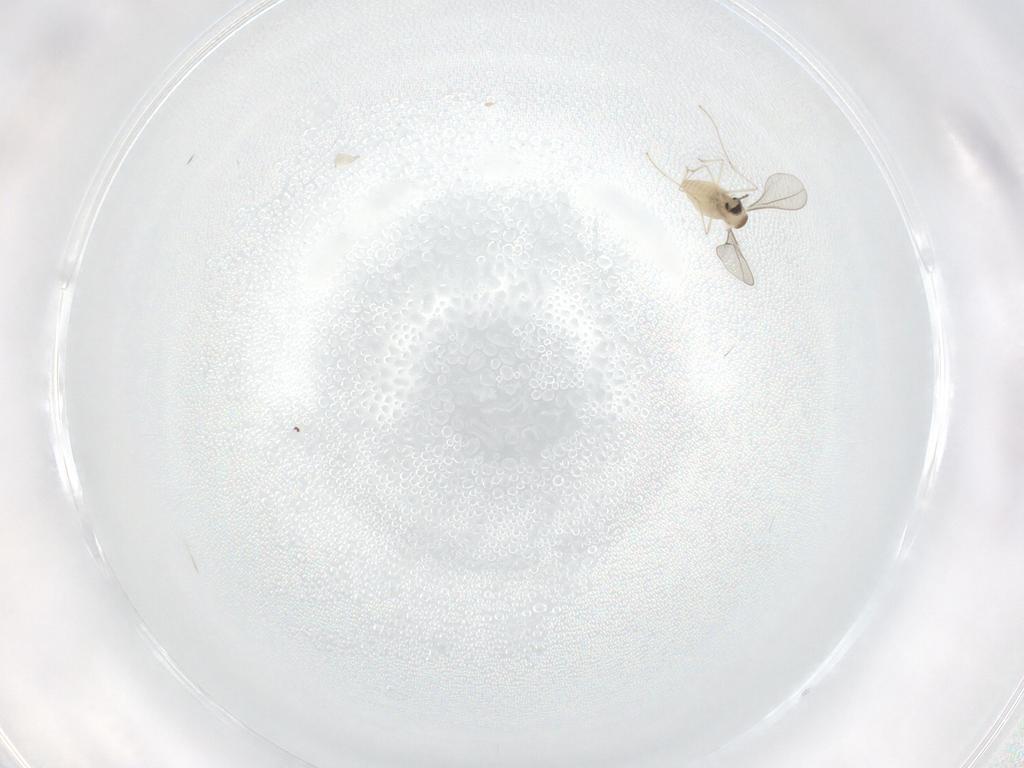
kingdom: Animalia
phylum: Arthropoda
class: Insecta
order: Diptera
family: Cecidomyiidae
